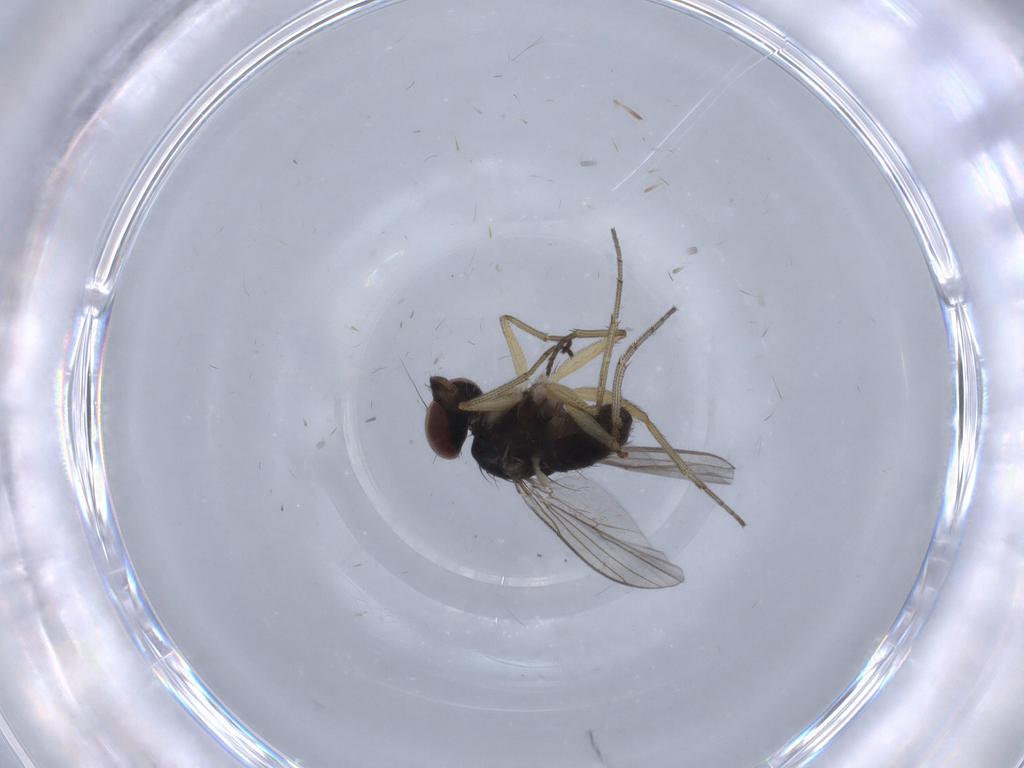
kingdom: Animalia
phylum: Arthropoda
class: Insecta
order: Diptera
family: Dolichopodidae
